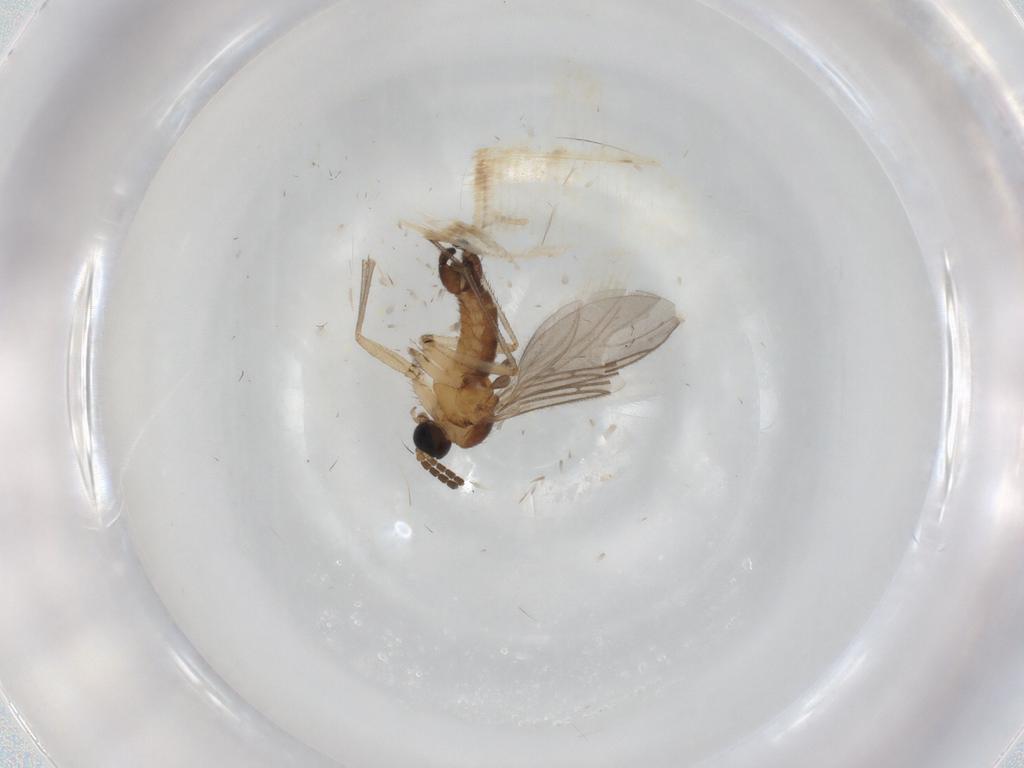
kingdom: Animalia
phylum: Arthropoda
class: Insecta
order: Diptera
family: Sciaridae
